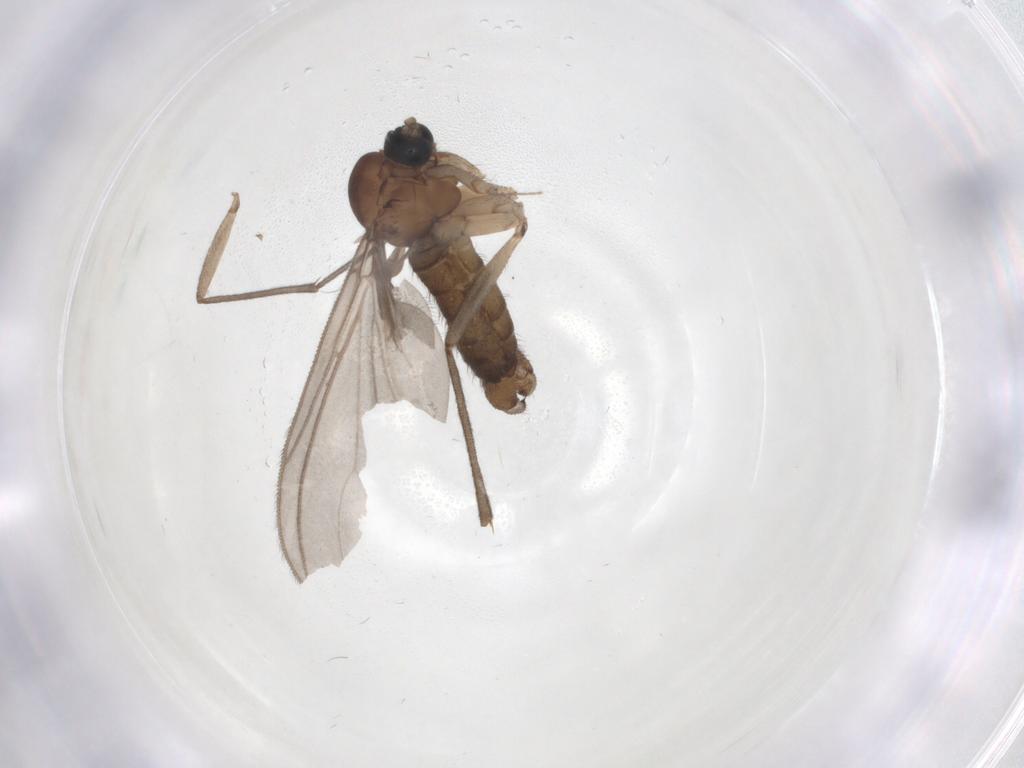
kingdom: Animalia
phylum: Arthropoda
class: Insecta
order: Diptera
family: Sciaridae
